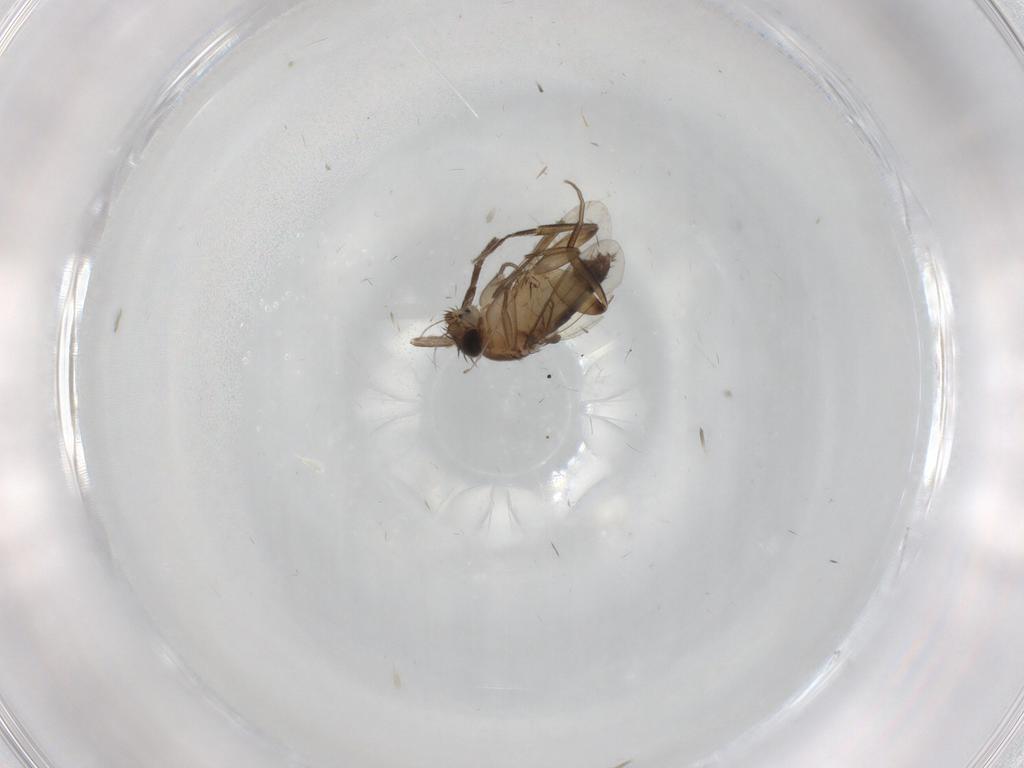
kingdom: Animalia
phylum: Arthropoda
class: Insecta
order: Diptera
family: Phoridae
